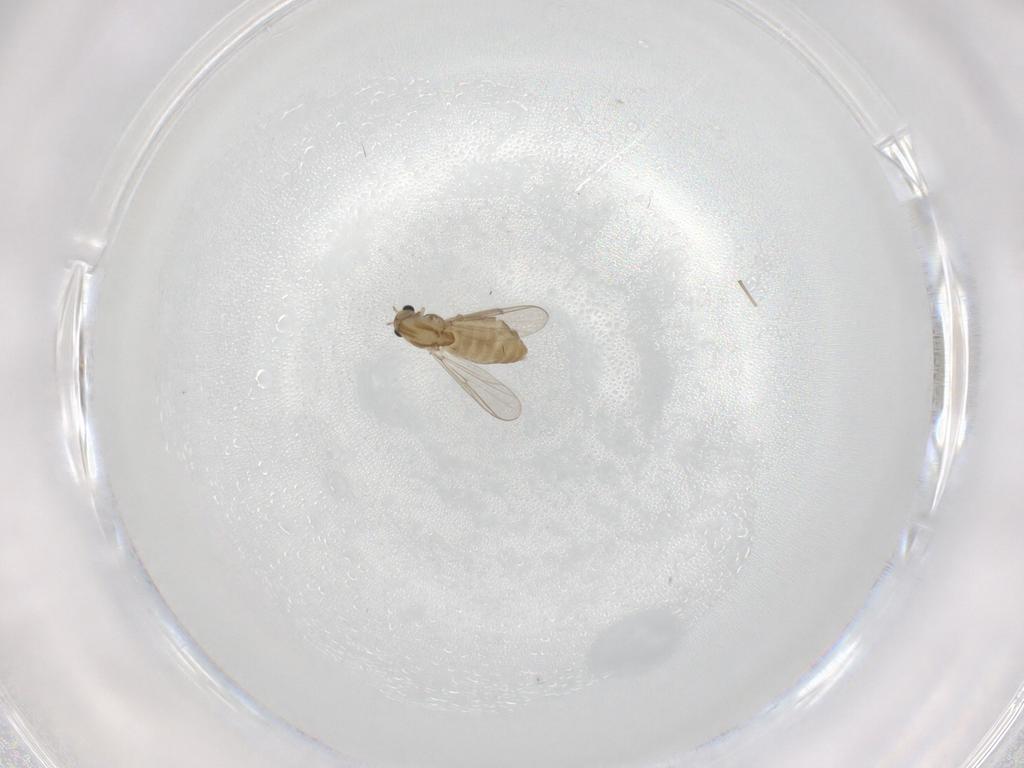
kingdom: Animalia
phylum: Arthropoda
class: Insecta
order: Diptera
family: Chironomidae
